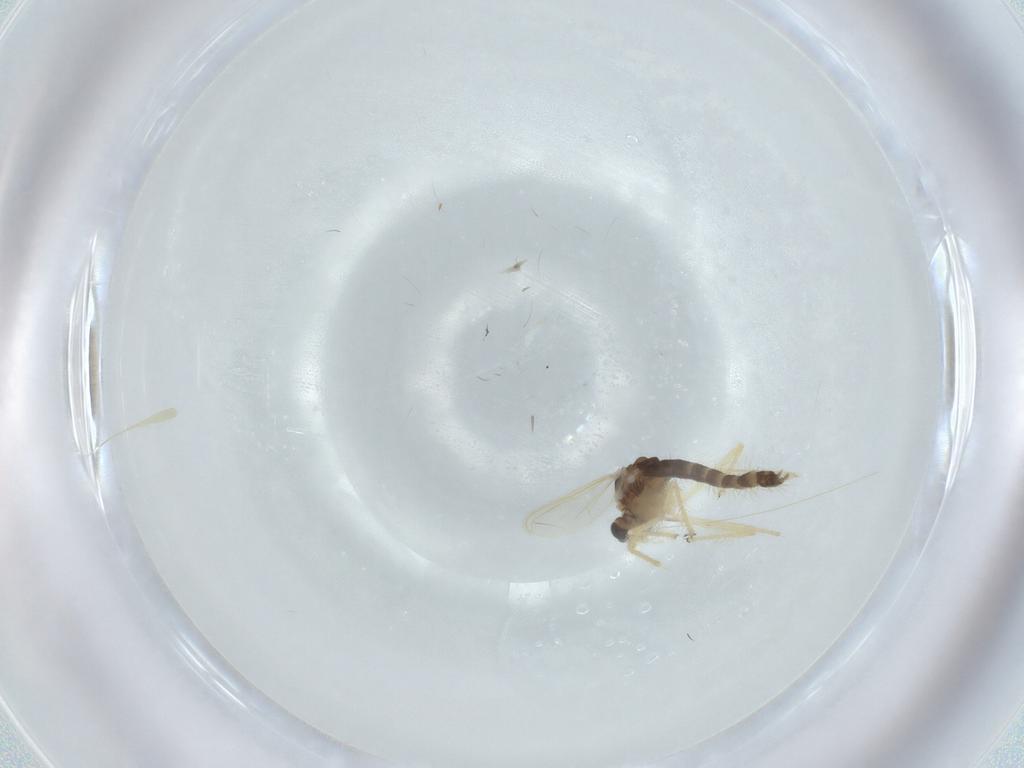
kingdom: Animalia
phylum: Arthropoda
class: Insecta
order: Diptera
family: Chironomidae
